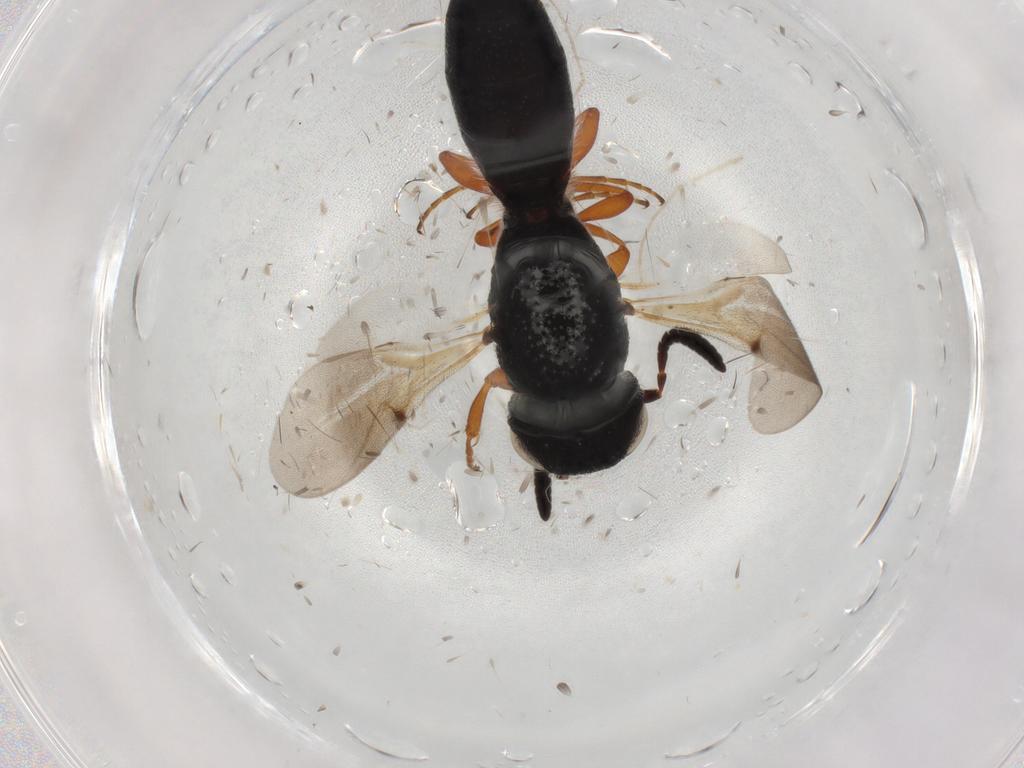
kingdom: Animalia
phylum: Arthropoda
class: Insecta
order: Hymenoptera
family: Scelionidae
